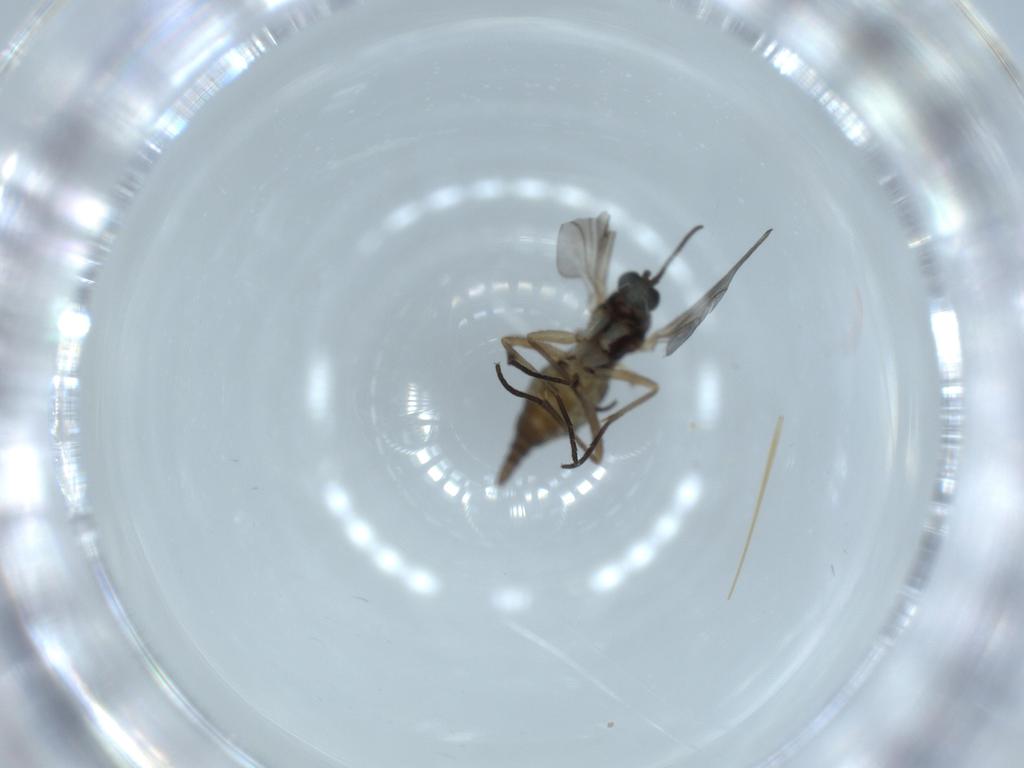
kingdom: Animalia
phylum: Arthropoda
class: Insecta
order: Diptera
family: Sciaridae
